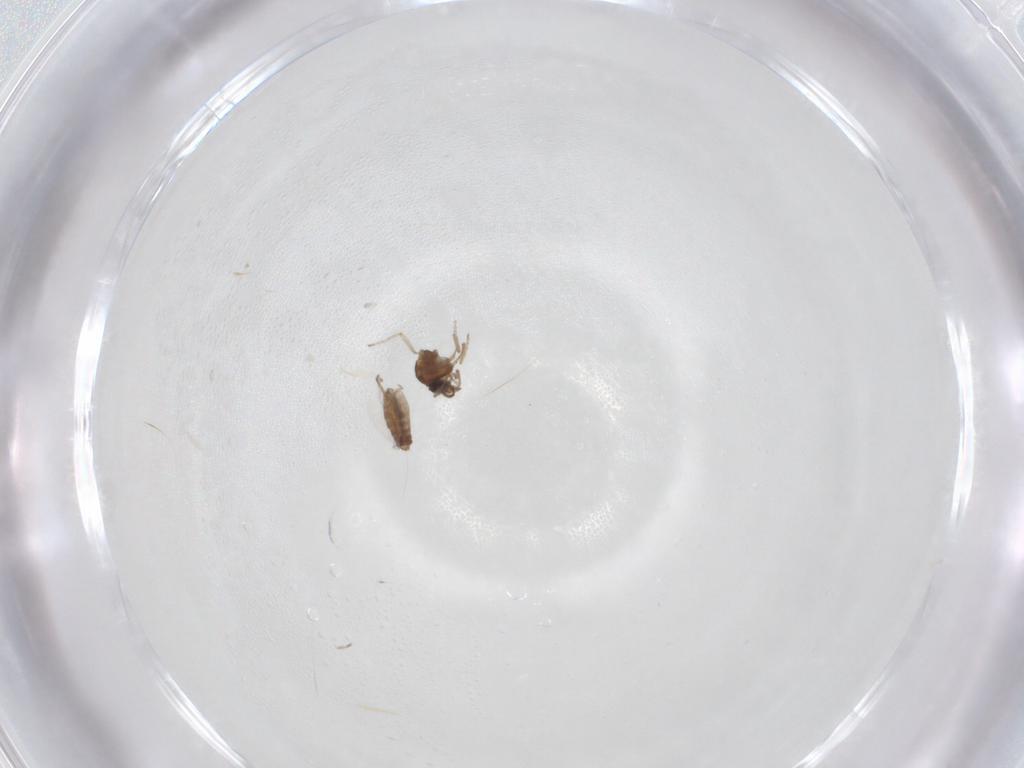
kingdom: Animalia
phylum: Arthropoda
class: Insecta
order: Diptera
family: Ceratopogonidae
